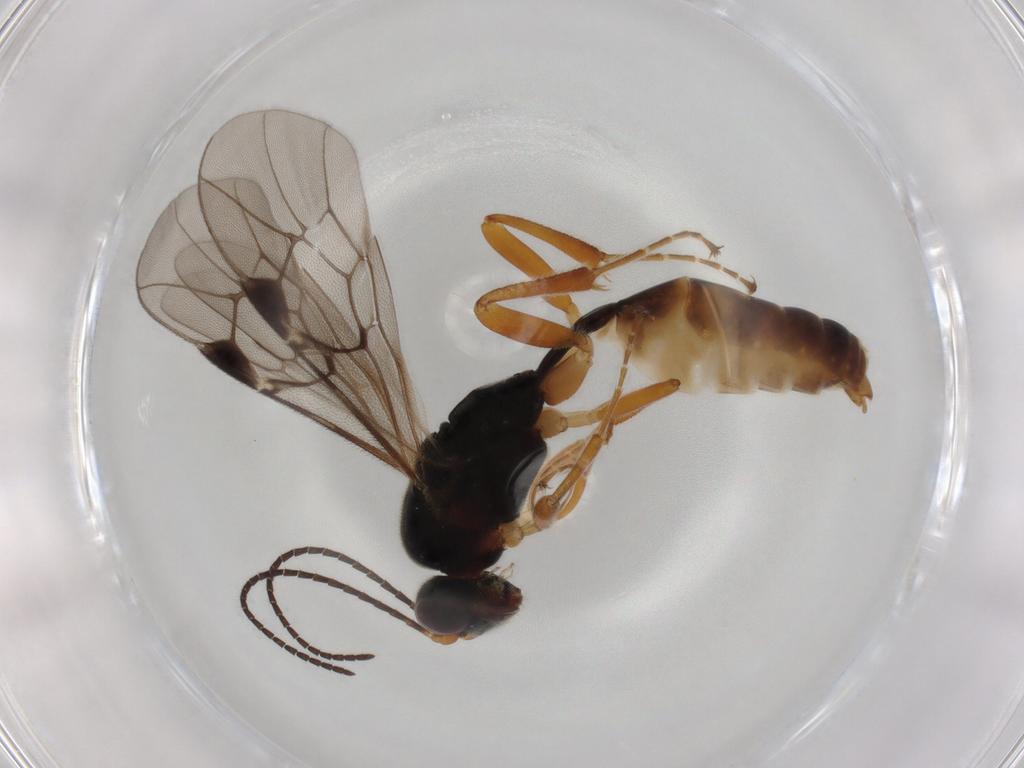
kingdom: Animalia
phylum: Arthropoda
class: Insecta
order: Hymenoptera
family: Ichneumonidae
